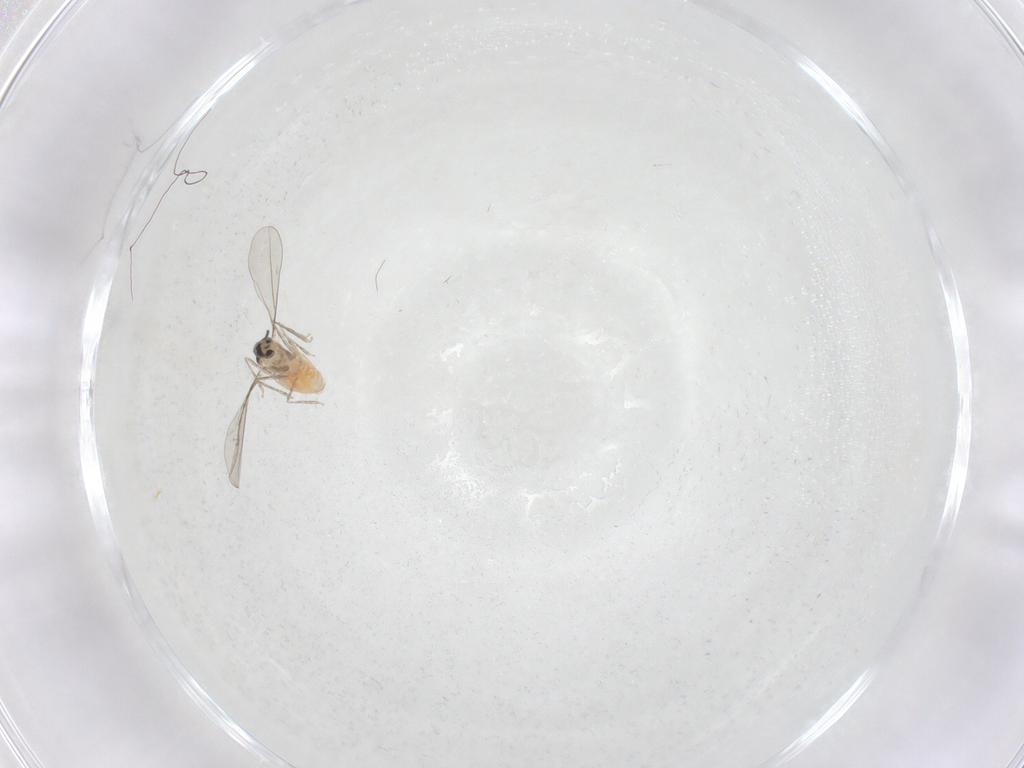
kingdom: Animalia
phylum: Arthropoda
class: Insecta
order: Diptera
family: Cecidomyiidae
